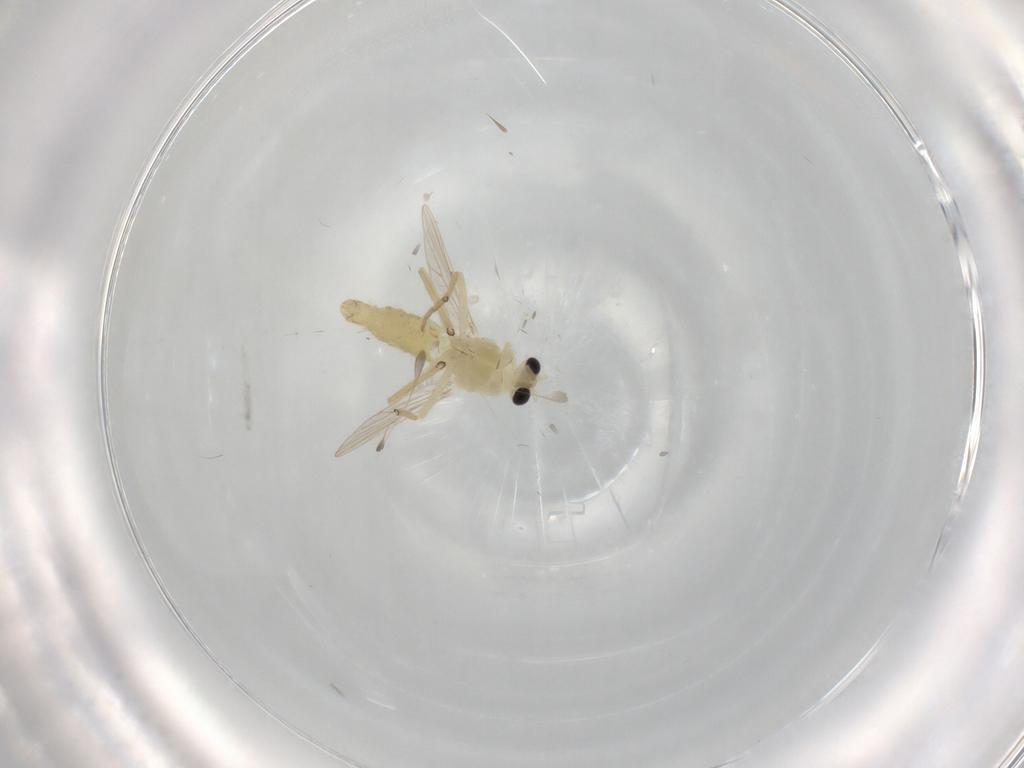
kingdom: Animalia
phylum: Arthropoda
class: Insecta
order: Diptera
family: Chironomidae
